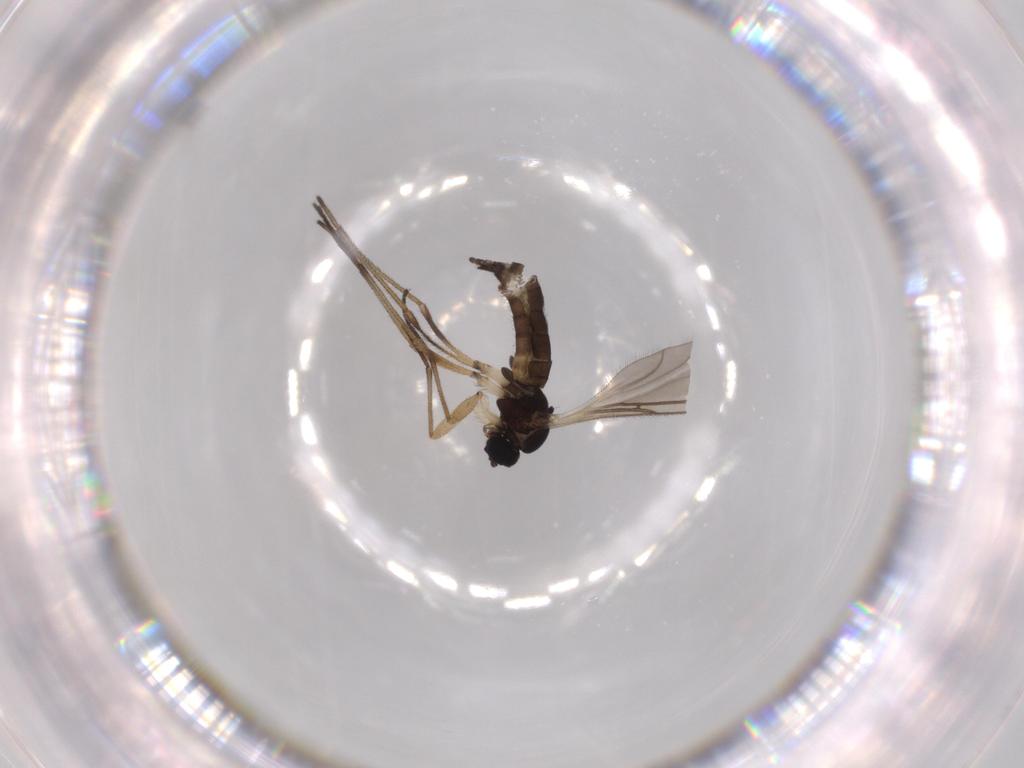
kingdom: Animalia
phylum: Arthropoda
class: Insecta
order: Diptera
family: Sciaridae
